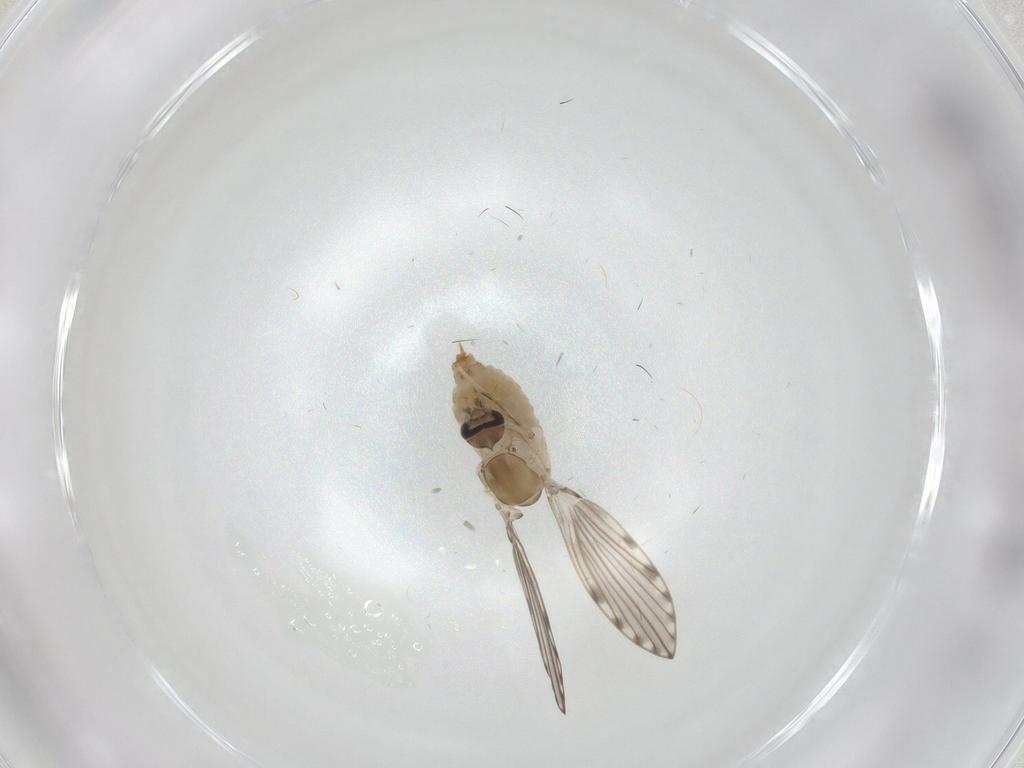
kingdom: Animalia
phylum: Arthropoda
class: Insecta
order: Diptera
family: Psychodidae
